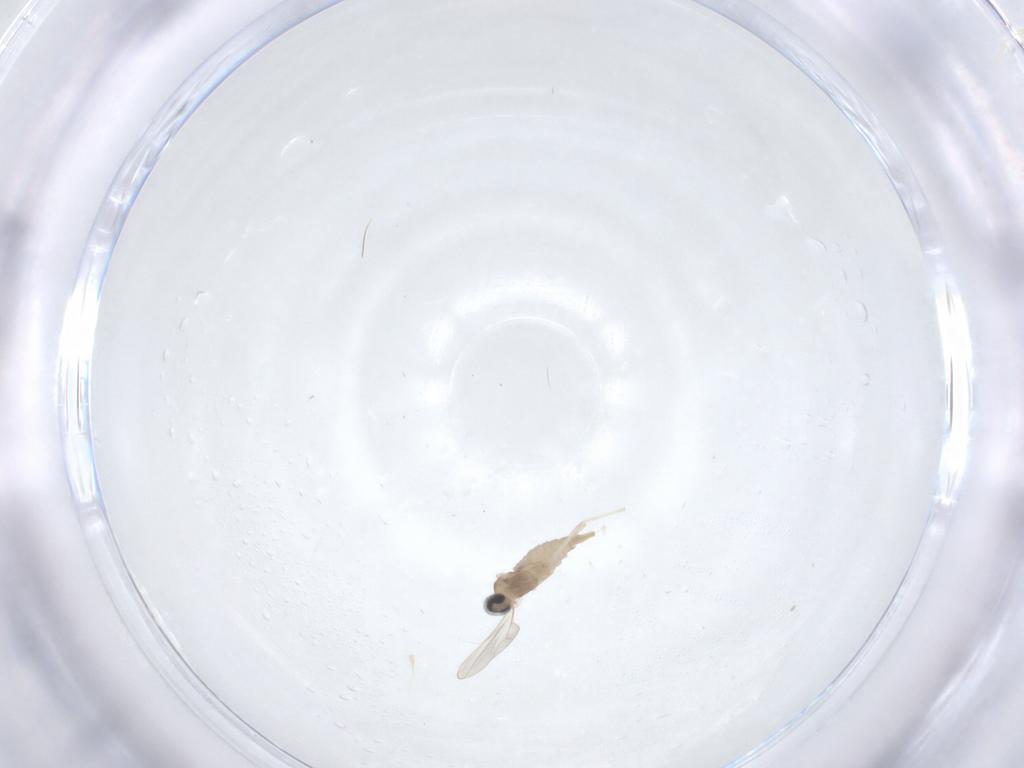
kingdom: Animalia
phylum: Arthropoda
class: Insecta
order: Diptera
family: Cecidomyiidae
